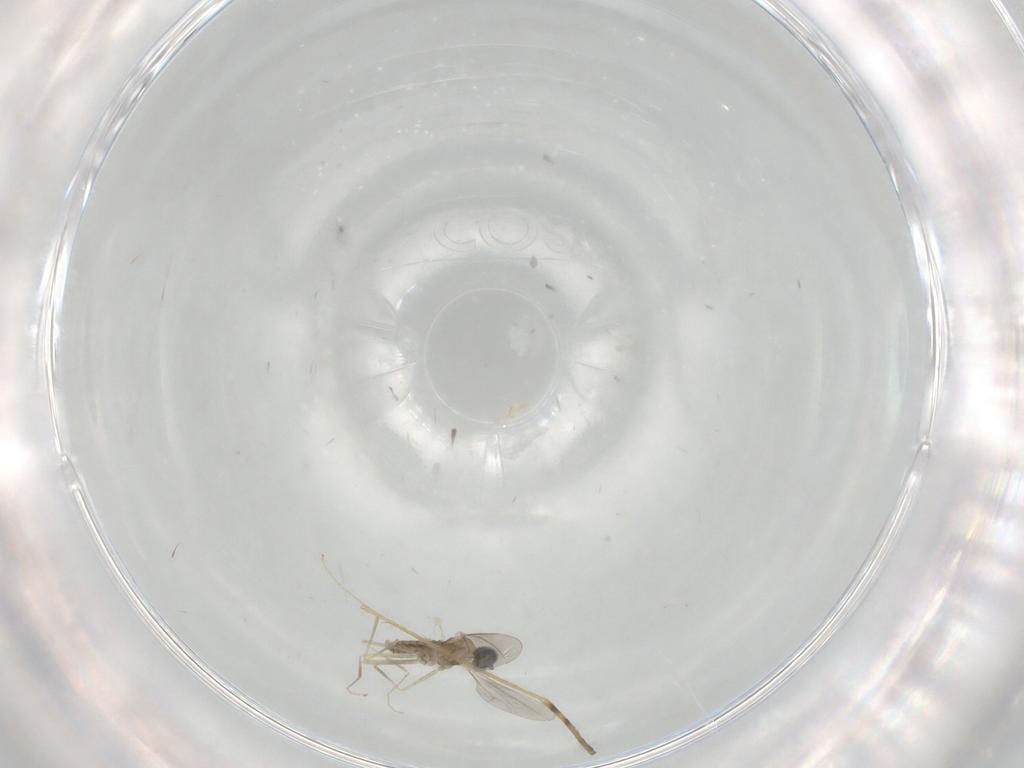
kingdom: Animalia
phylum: Arthropoda
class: Insecta
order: Diptera
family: Limoniidae
